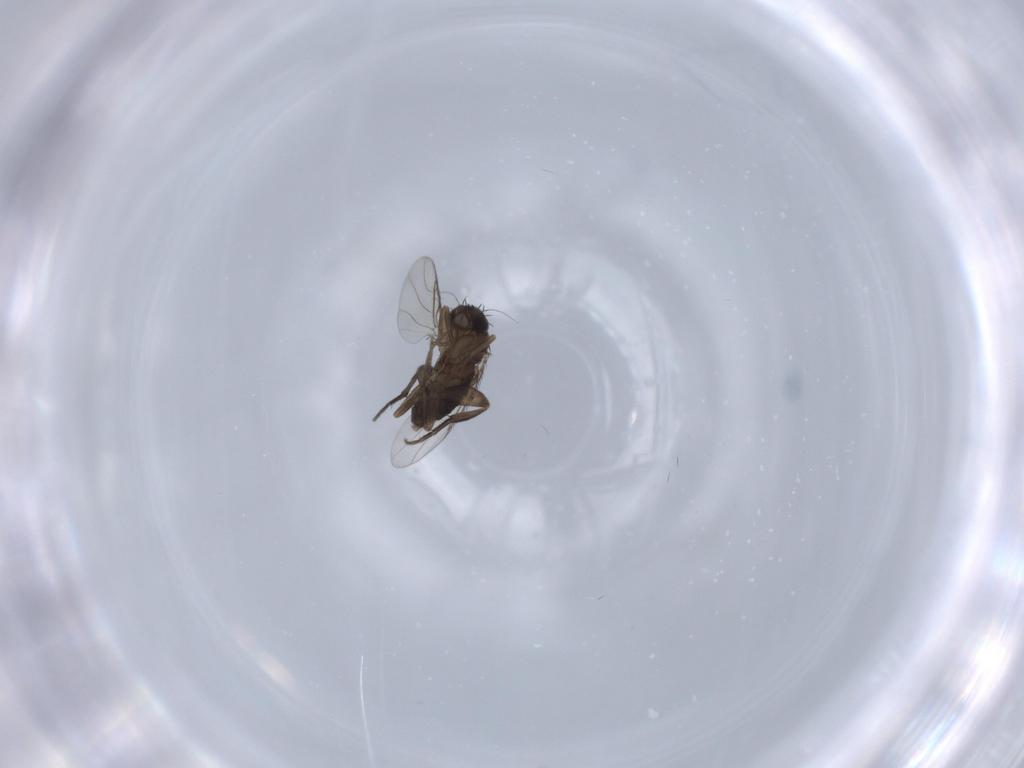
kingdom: Animalia
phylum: Arthropoda
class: Insecta
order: Diptera
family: Phoridae
